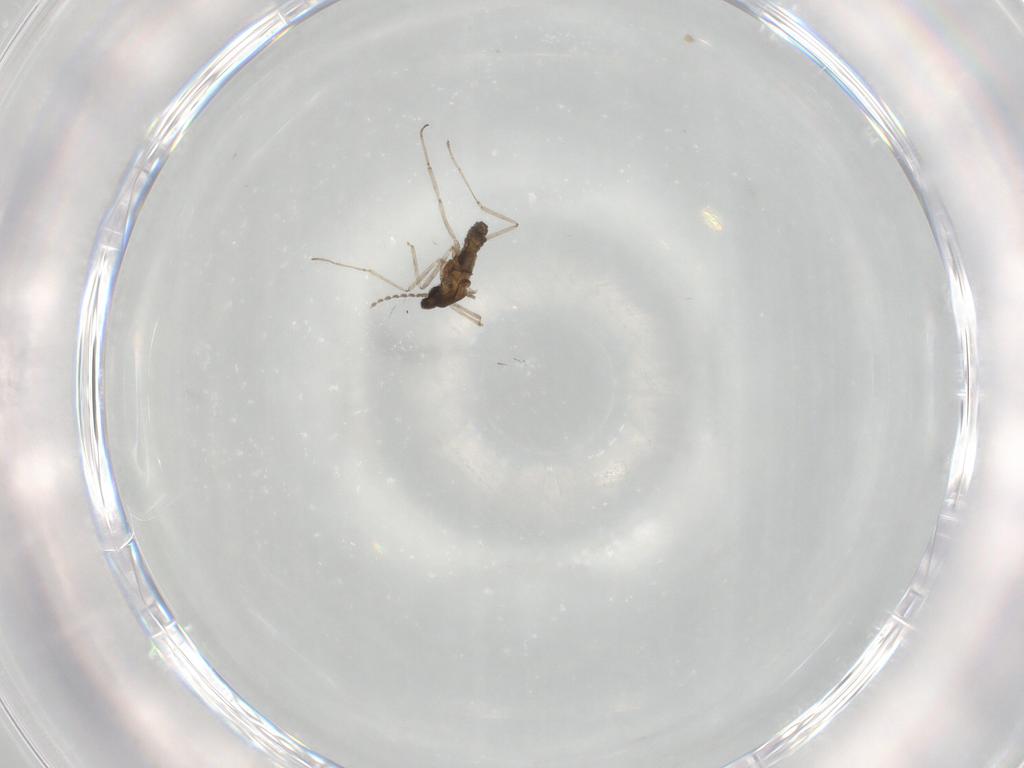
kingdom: Animalia
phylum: Arthropoda
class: Insecta
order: Diptera
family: Cecidomyiidae
